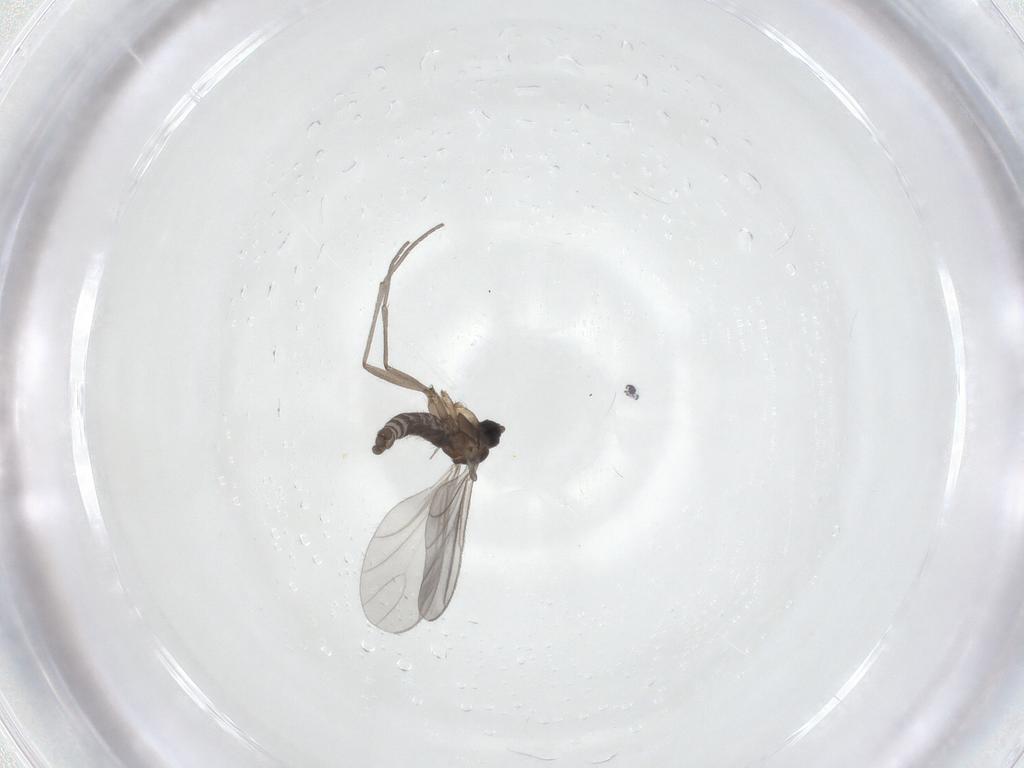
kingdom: Animalia
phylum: Arthropoda
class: Insecta
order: Diptera
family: Sciaridae
